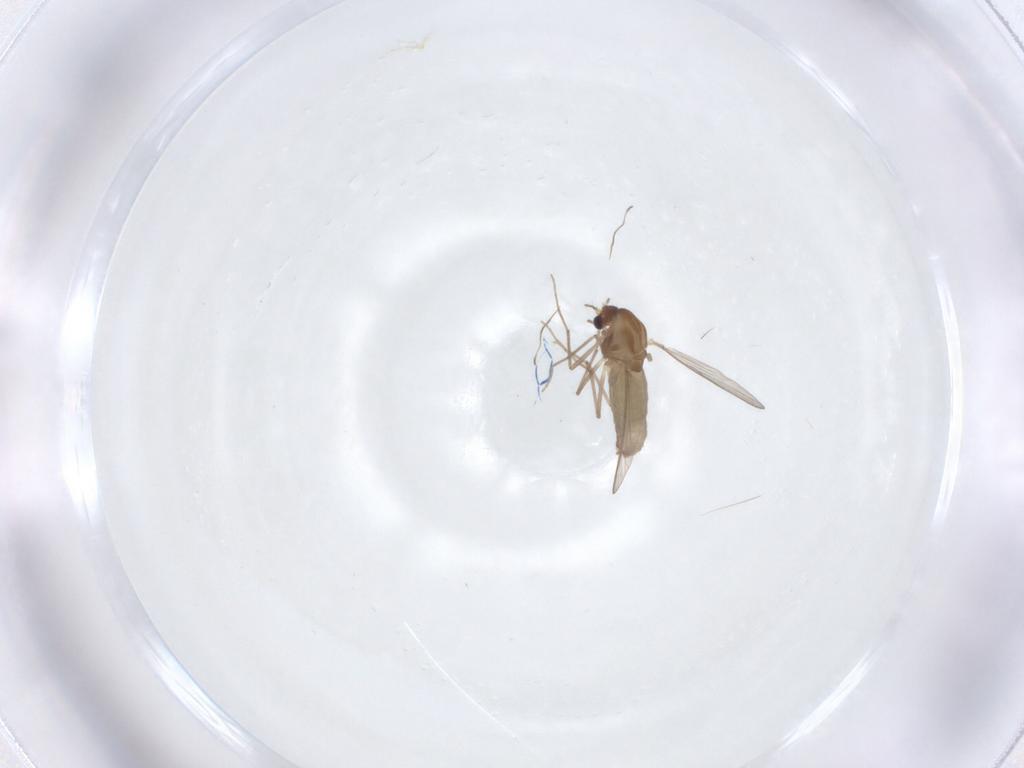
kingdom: Animalia
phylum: Arthropoda
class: Insecta
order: Diptera
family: Chironomidae
